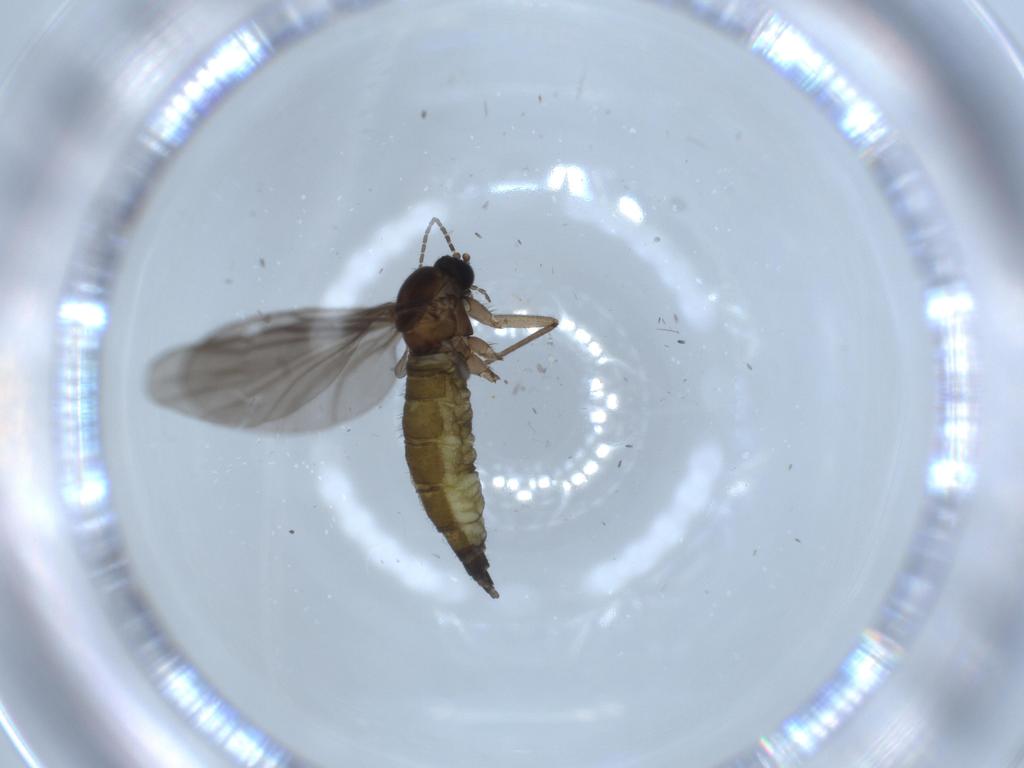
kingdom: Animalia
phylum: Arthropoda
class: Insecta
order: Diptera
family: Sciaridae
